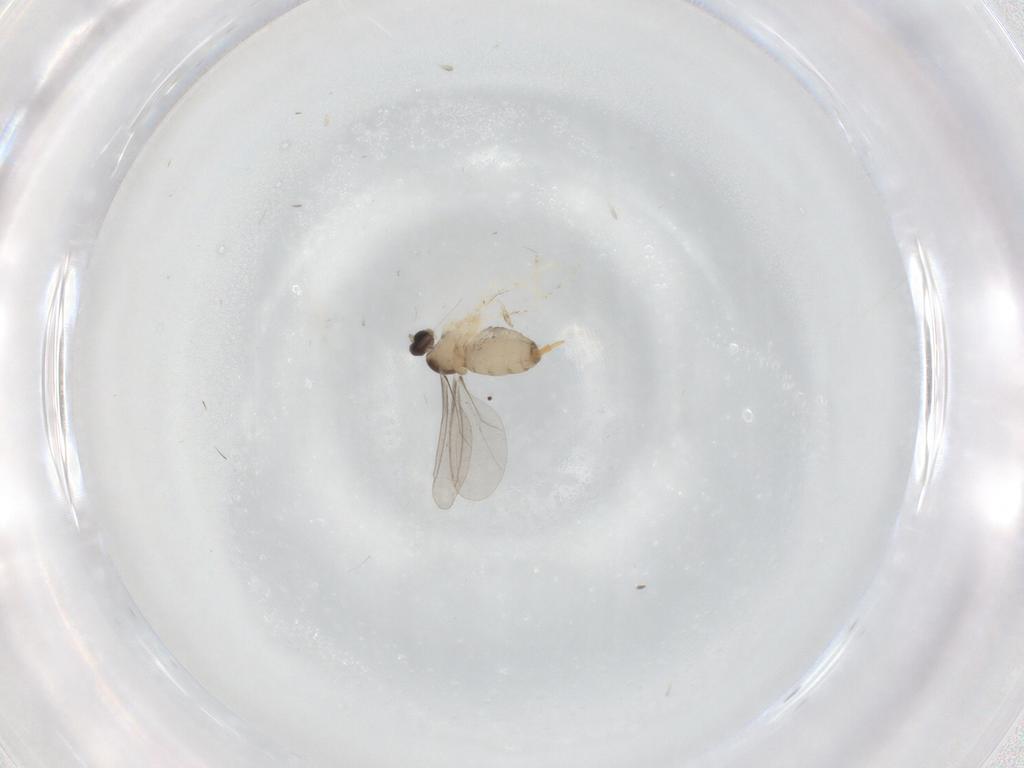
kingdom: Animalia
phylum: Arthropoda
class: Insecta
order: Diptera
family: Cecidomyiidae
